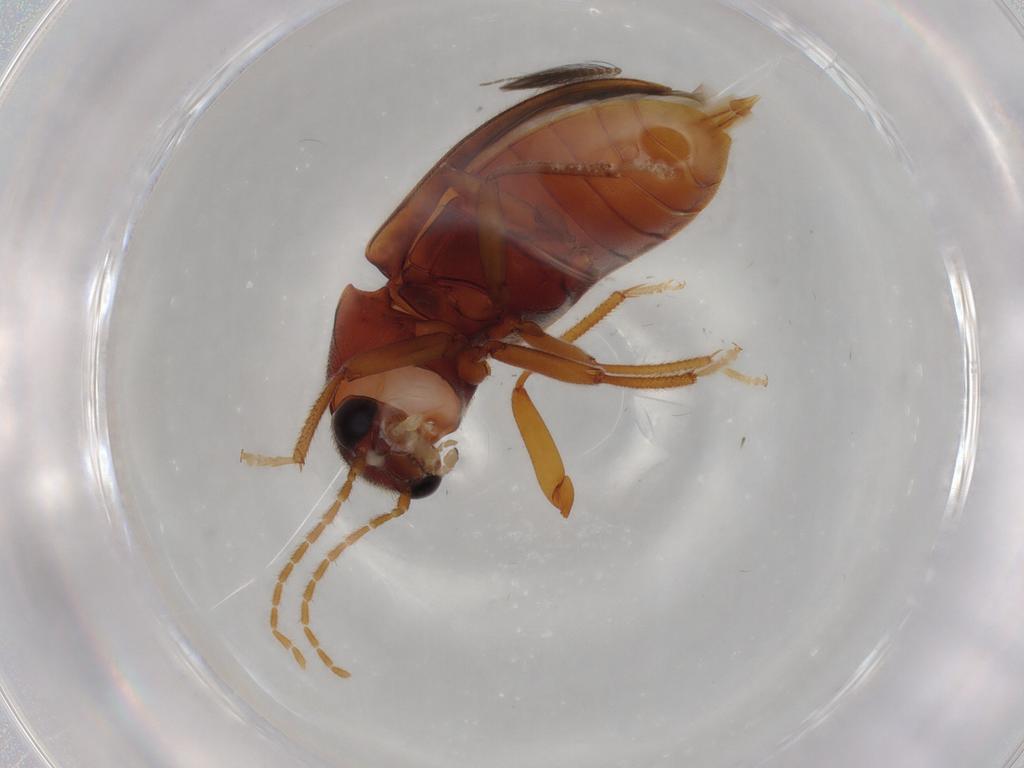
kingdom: Animalia
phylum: Arthropoda
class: Insecta
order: Coleoptera
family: Ptilodactylidae
